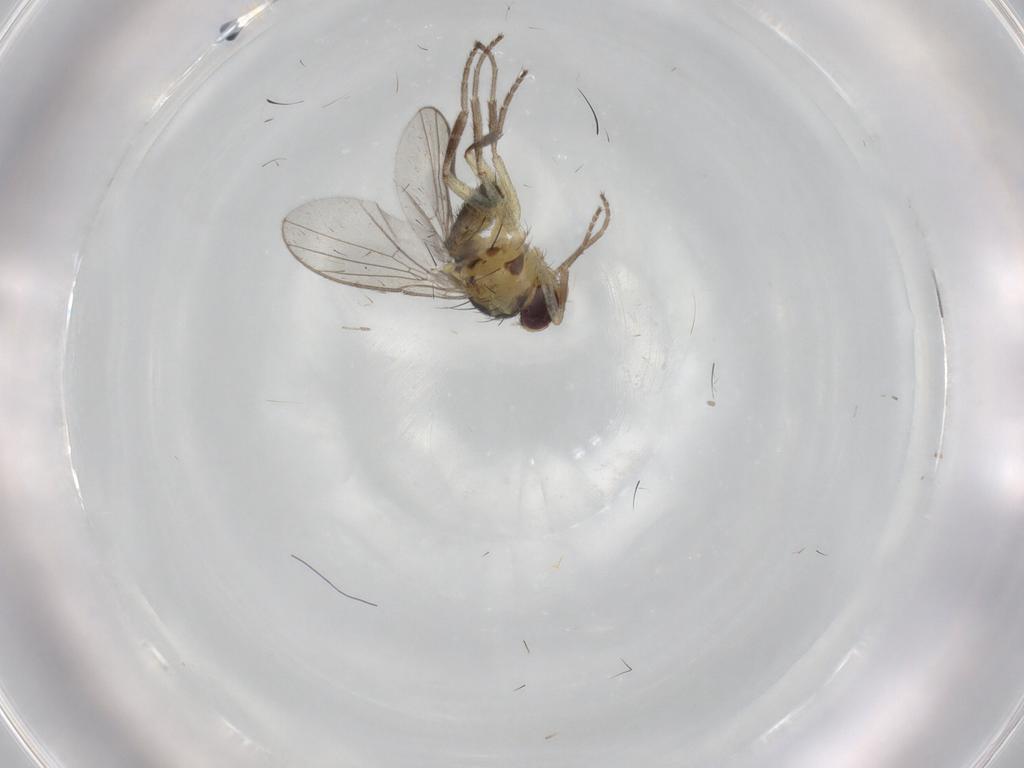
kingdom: Animalia
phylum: Arthropoda
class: Insecta
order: Diptera
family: Agromyzidae
